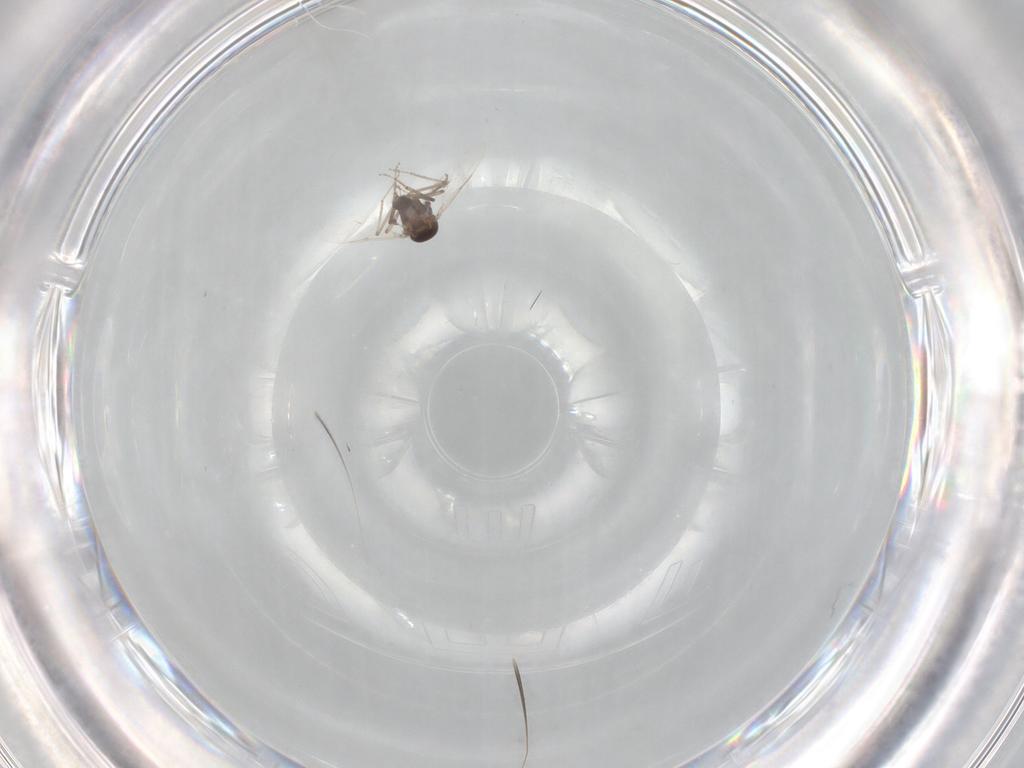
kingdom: Animalia
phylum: Arthropoda
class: Insecta
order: Diptera
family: Ceratopogonidae
